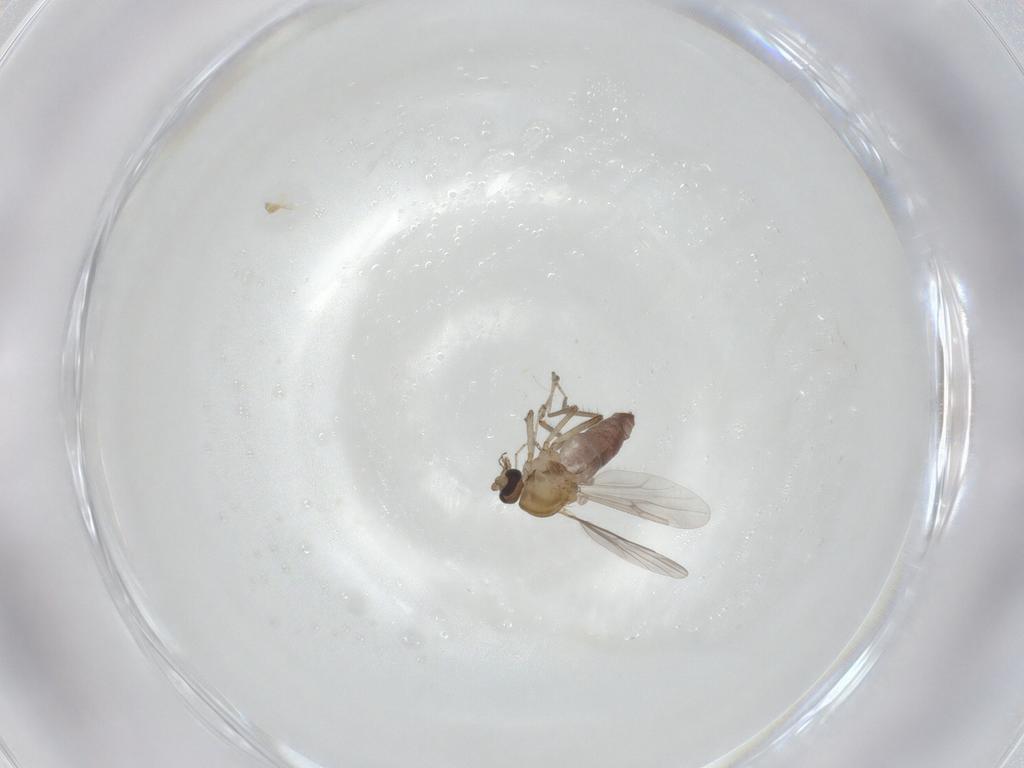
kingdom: Animalia
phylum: Arthropoda
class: Insecta
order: Diptera
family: Ceratopogonidae
